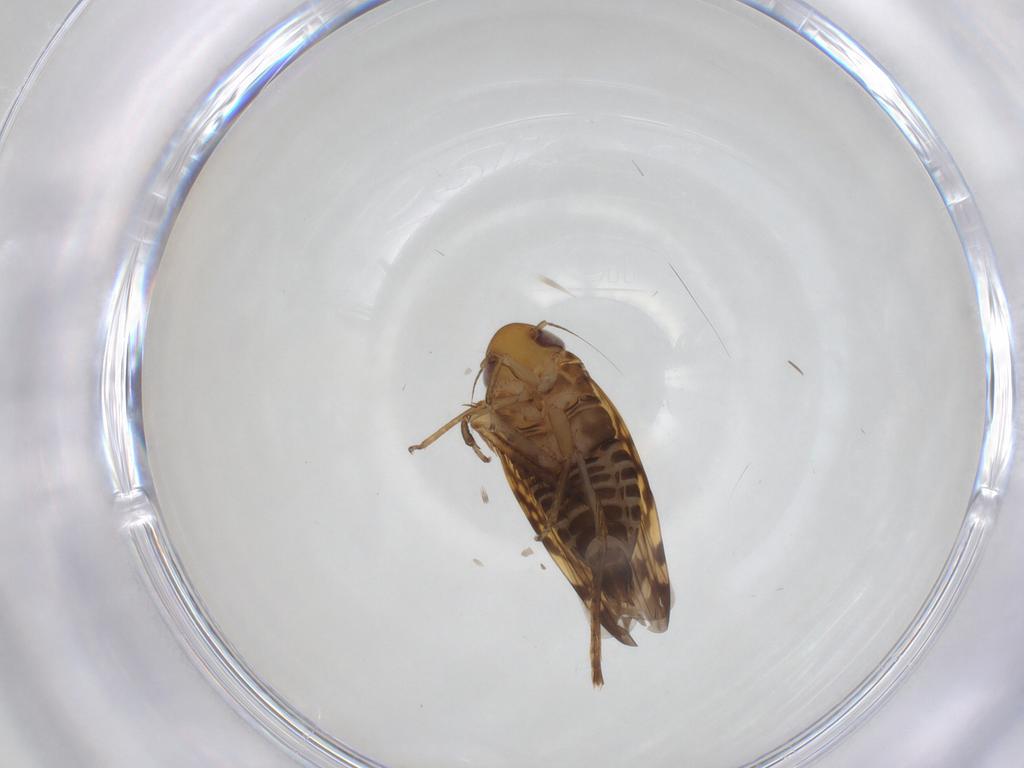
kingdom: Animalia
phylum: Arthropoda
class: Insecta
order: Hemiptera
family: Cicadellidae
